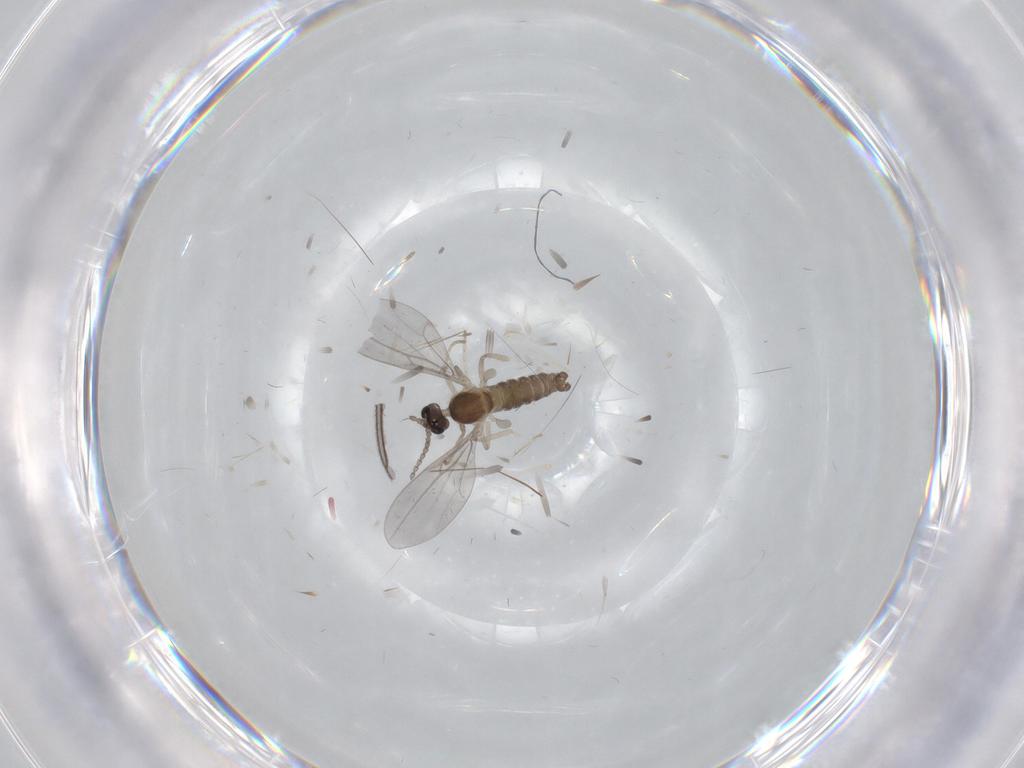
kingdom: Animalia
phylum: Arthropoda
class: Insecta
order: Diptera
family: Cecidomyiidae
